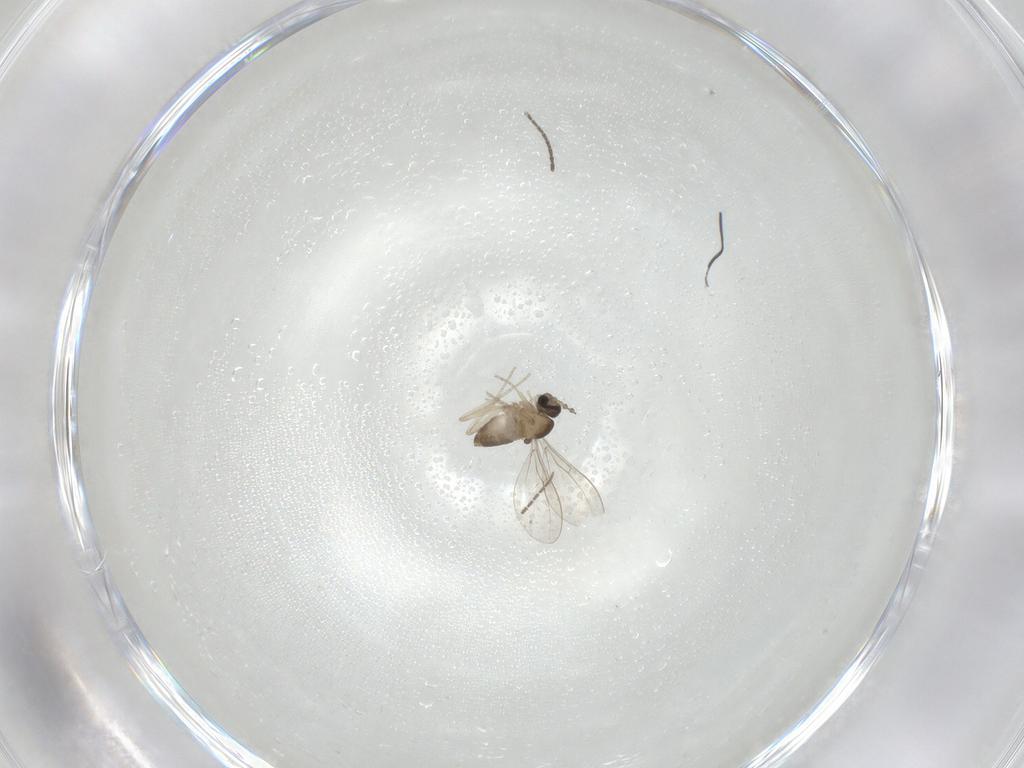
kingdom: Animalia
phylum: Arthropoda
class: Insecta
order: Diptera
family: Cecidomyiidae
